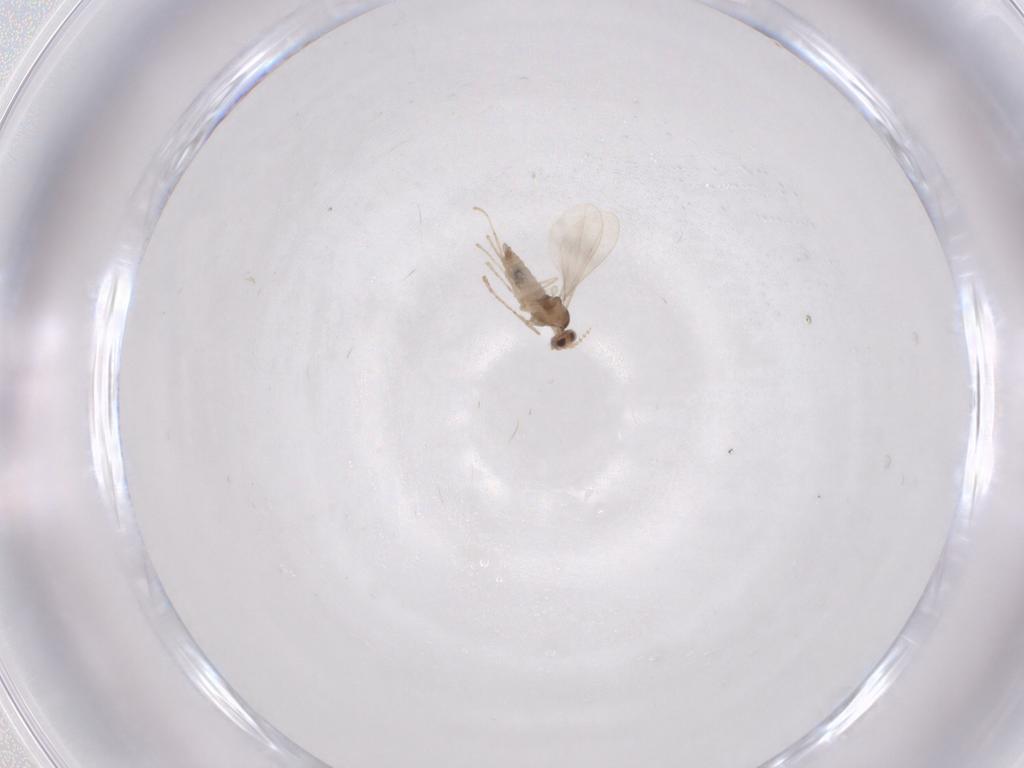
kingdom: Animalia
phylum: Arthropoda
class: Insecta
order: Diptera
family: Cecidomyiidae
